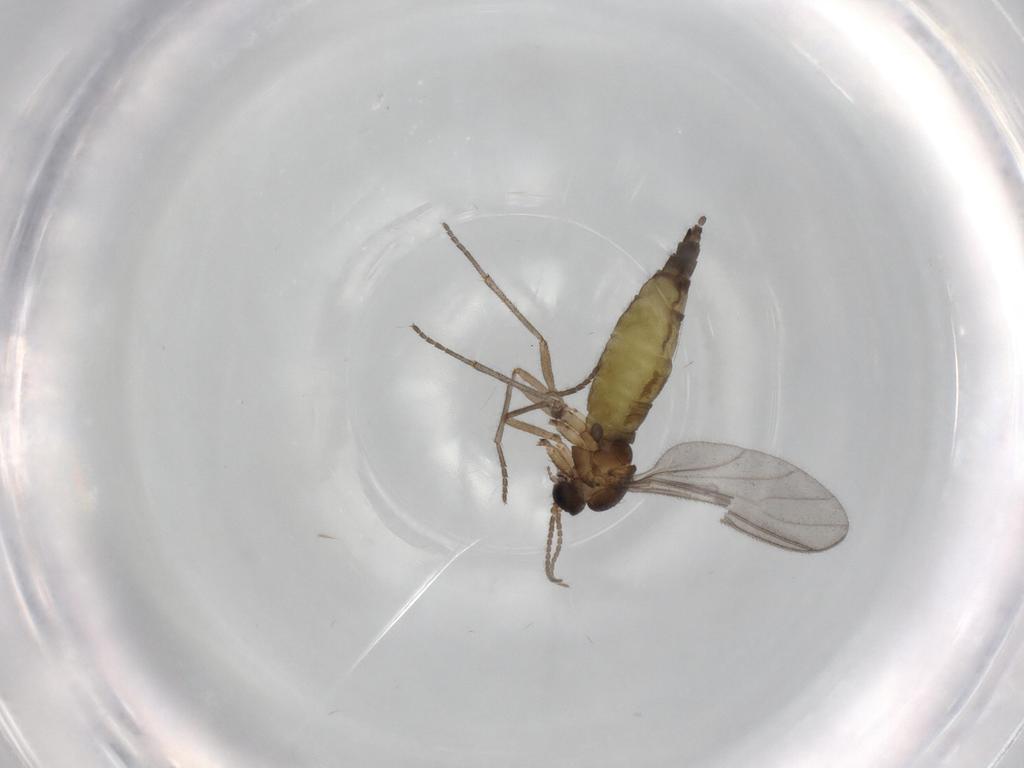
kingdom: Animalia
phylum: Arthropoda
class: Insecta
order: Diptera
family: Sciaridae
